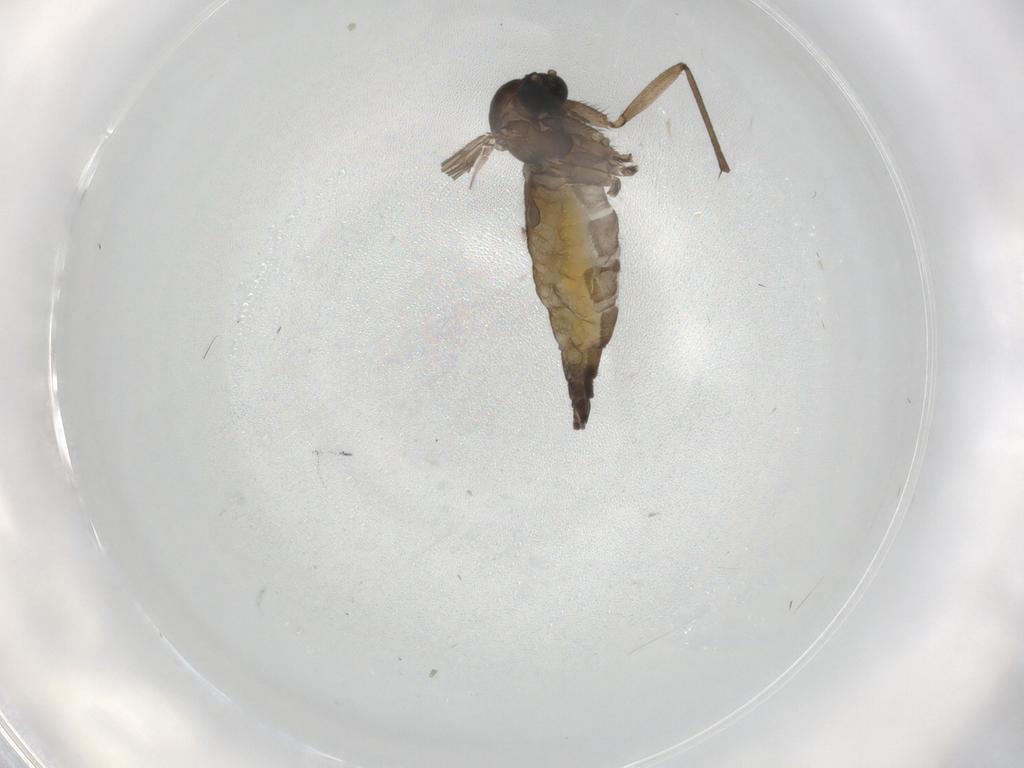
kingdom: Animalia
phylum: Arthropoda
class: Insecta
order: Diptera
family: Sciaridae
